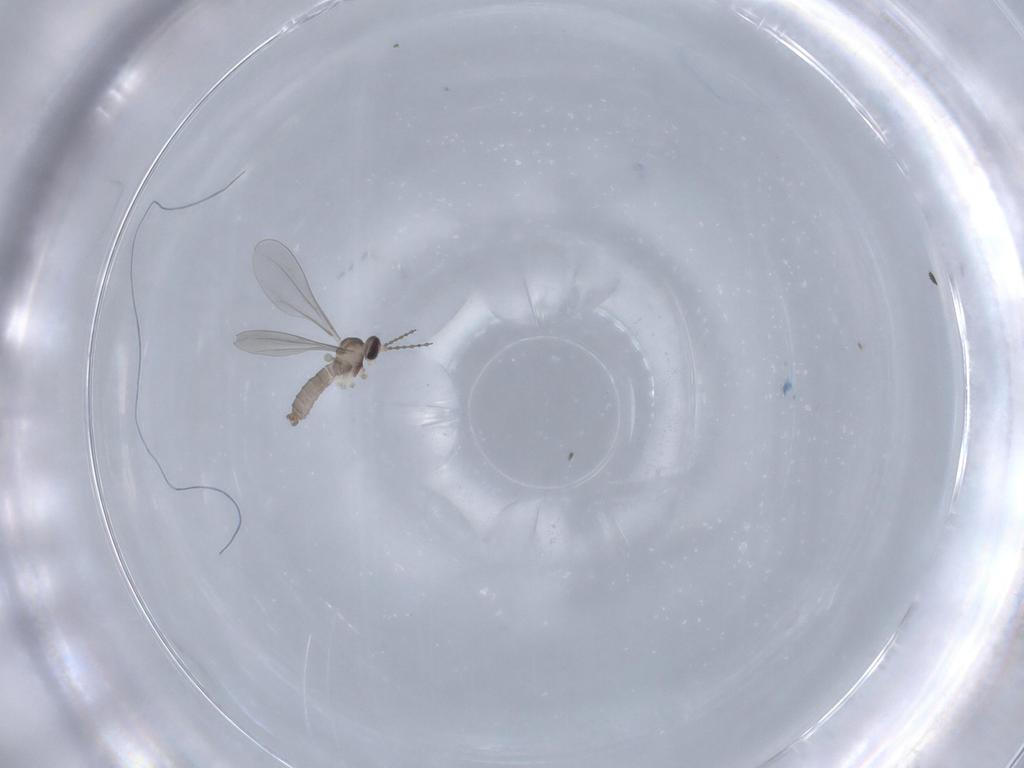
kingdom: Animalia
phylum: Arthropoda
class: Insecta
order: Diptera
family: Cecidomyiidae
